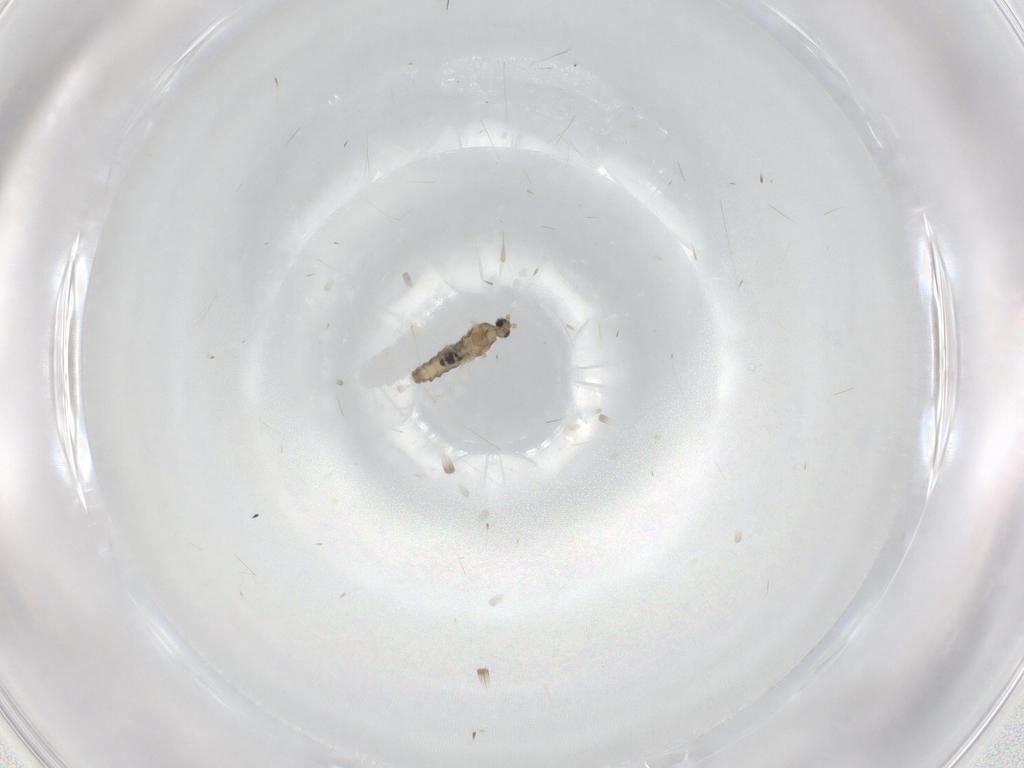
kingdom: Animalia
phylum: Arthropoda
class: Insecta
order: Diptera
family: Cecidomyiidae
